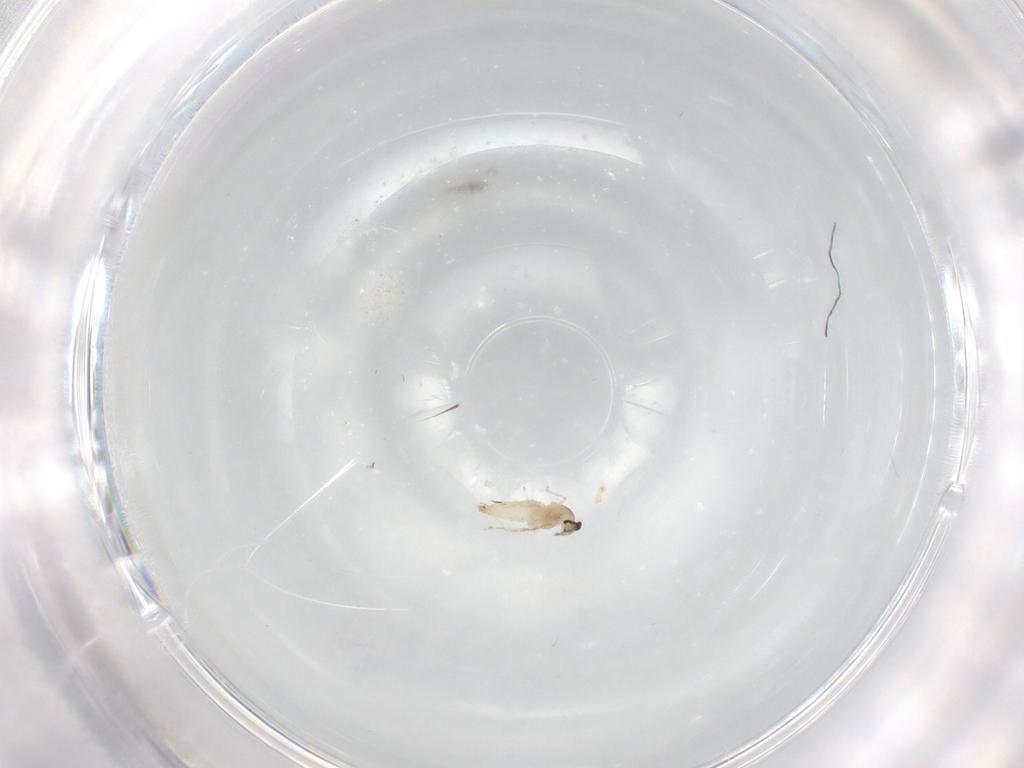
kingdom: Animalia
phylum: Arthropoda
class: Insecta
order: Diptera
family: Cecidomyiidae
